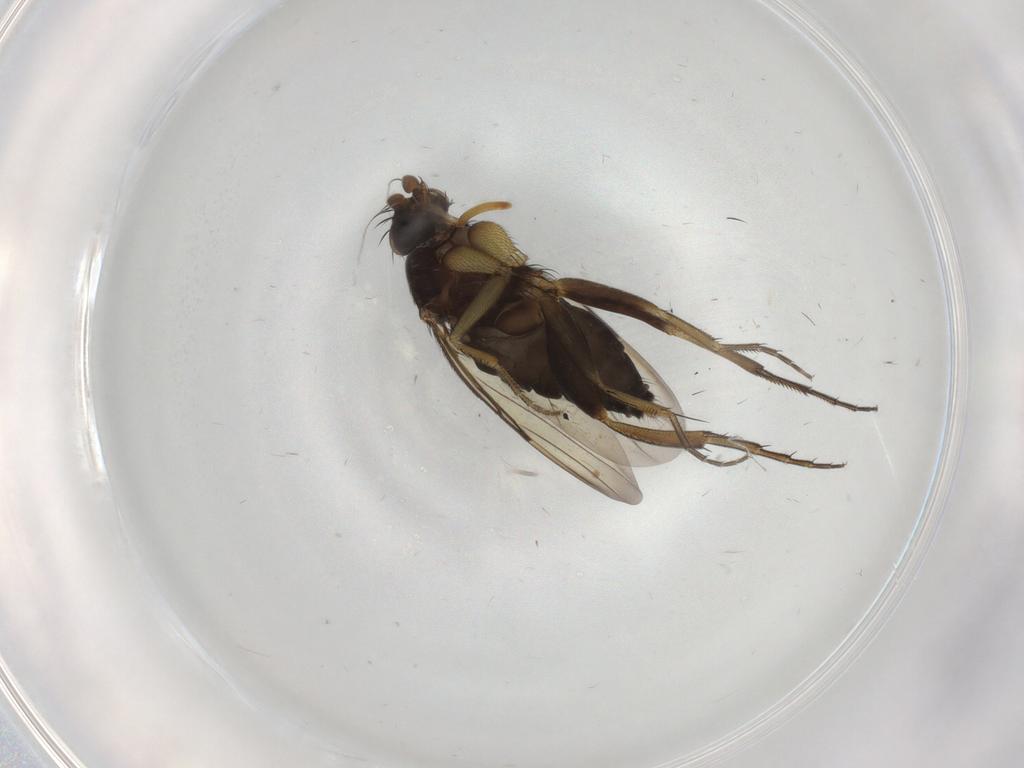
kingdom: Animalia
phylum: Arthropoda
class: Insecta
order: Diptera
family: Phoridae
